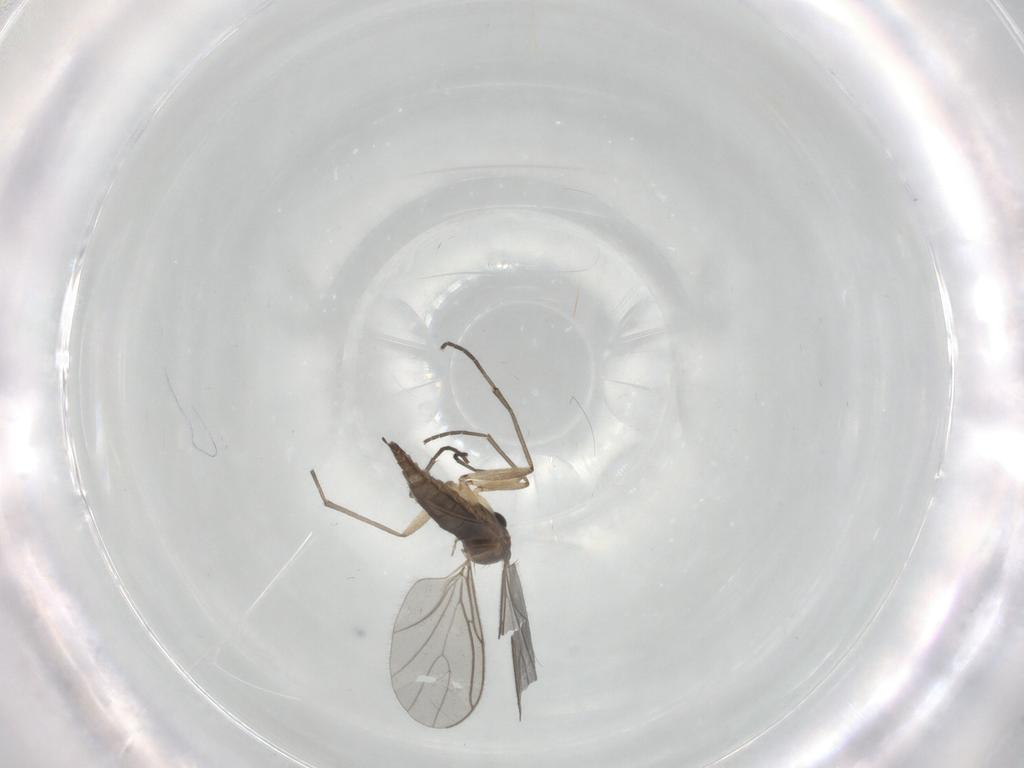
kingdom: Animalia
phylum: Arthropoda
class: Insecta
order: Diptera
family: Sciaridae
